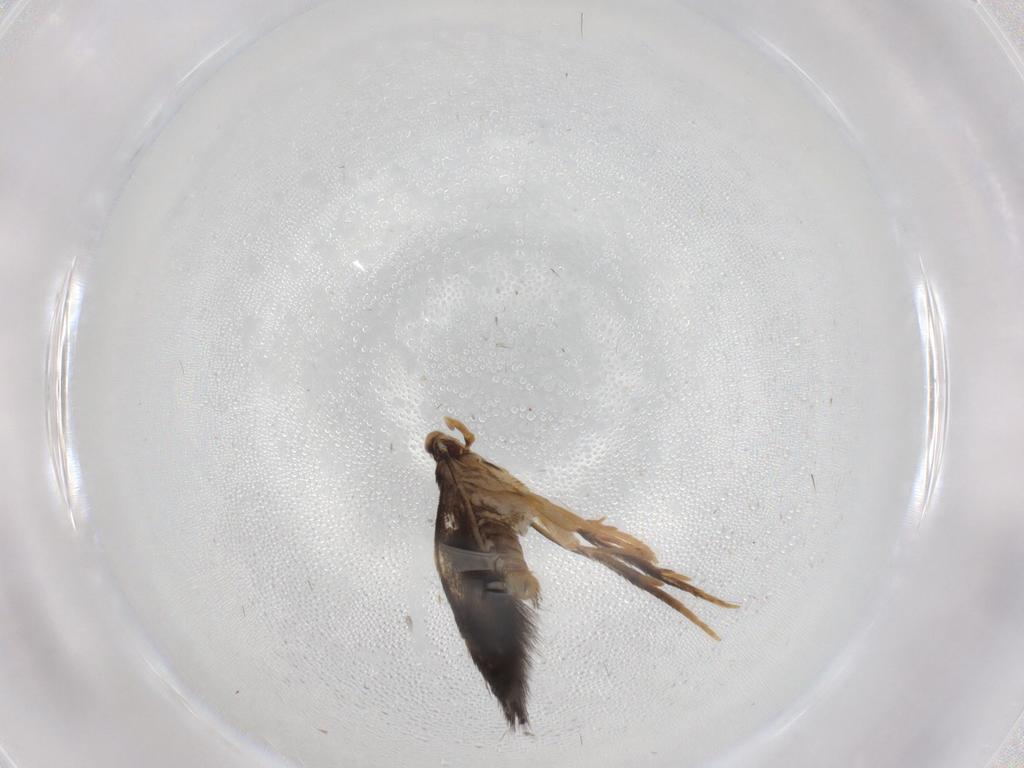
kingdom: Animalia
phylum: Arthropoda
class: Insecta
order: Lepidoptera
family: Gelechiidae
